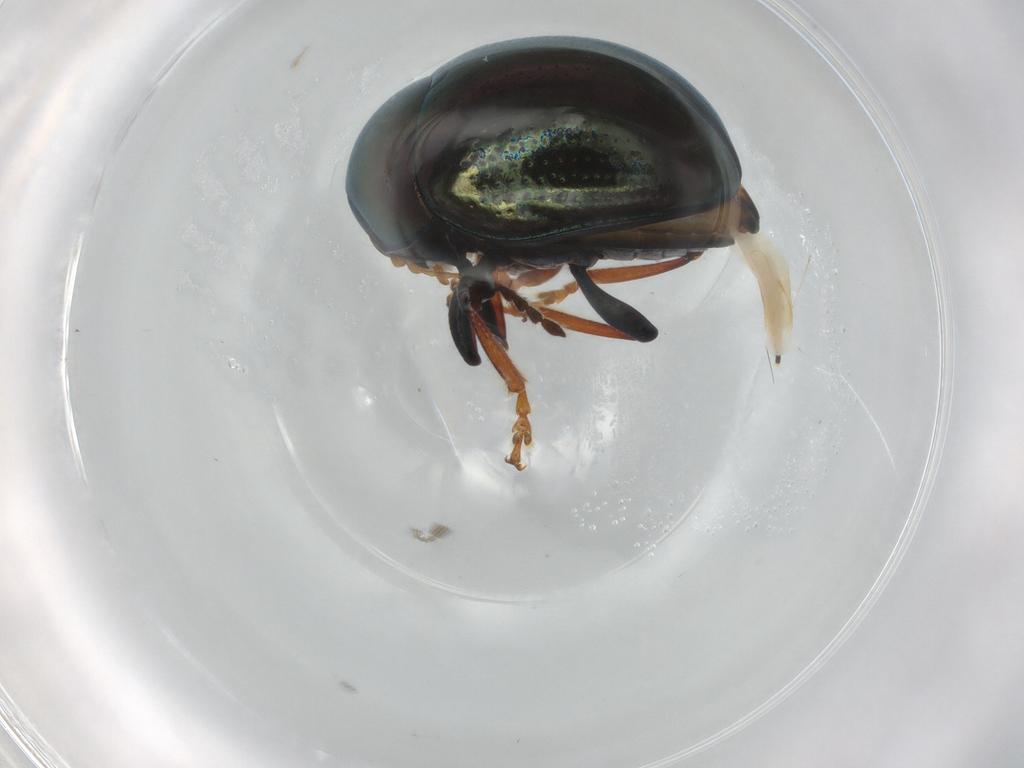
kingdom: Animalia
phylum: Arthropoda
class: Insecta
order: Coleoptera
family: Chrysomelidae
